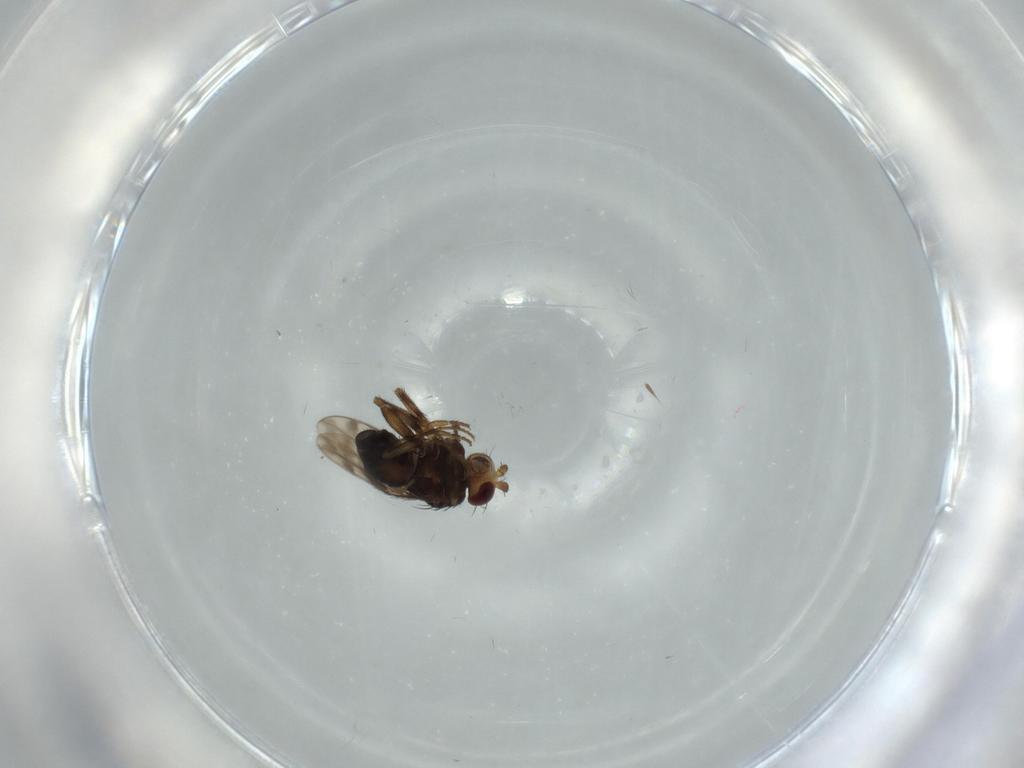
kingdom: Animalia
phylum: Arthropoda
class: Insecta
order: Diptera
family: Sphaeroceridae
